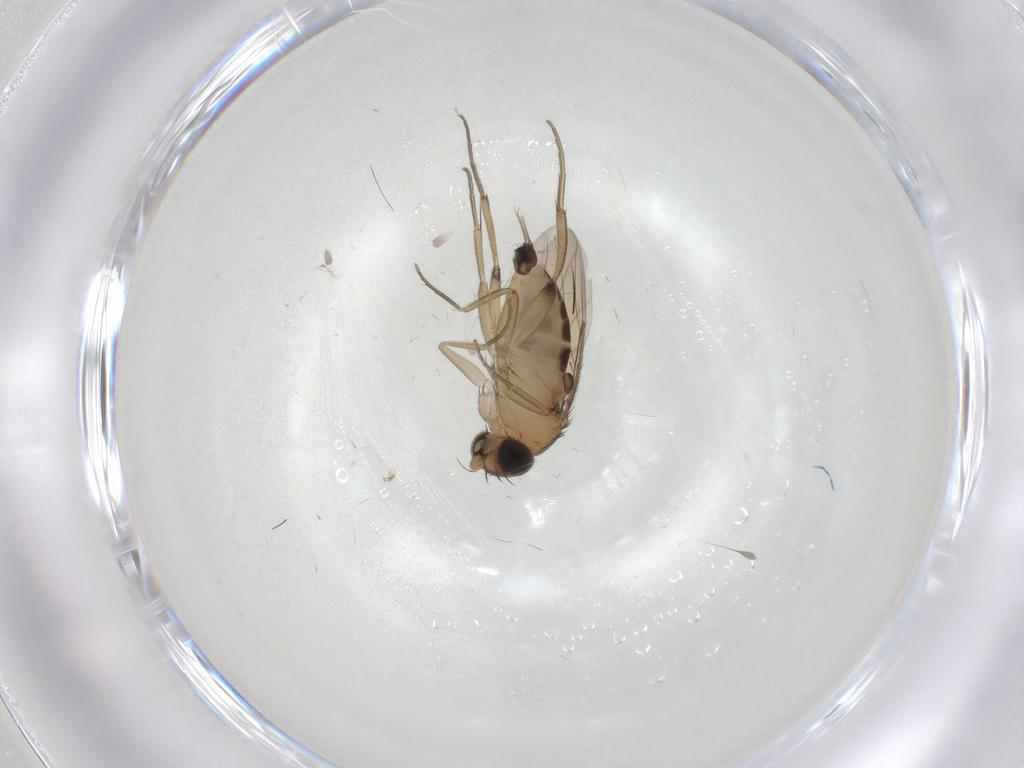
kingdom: Animalia
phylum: Arthropoda
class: Insecta
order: Diptera
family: Phoridae
